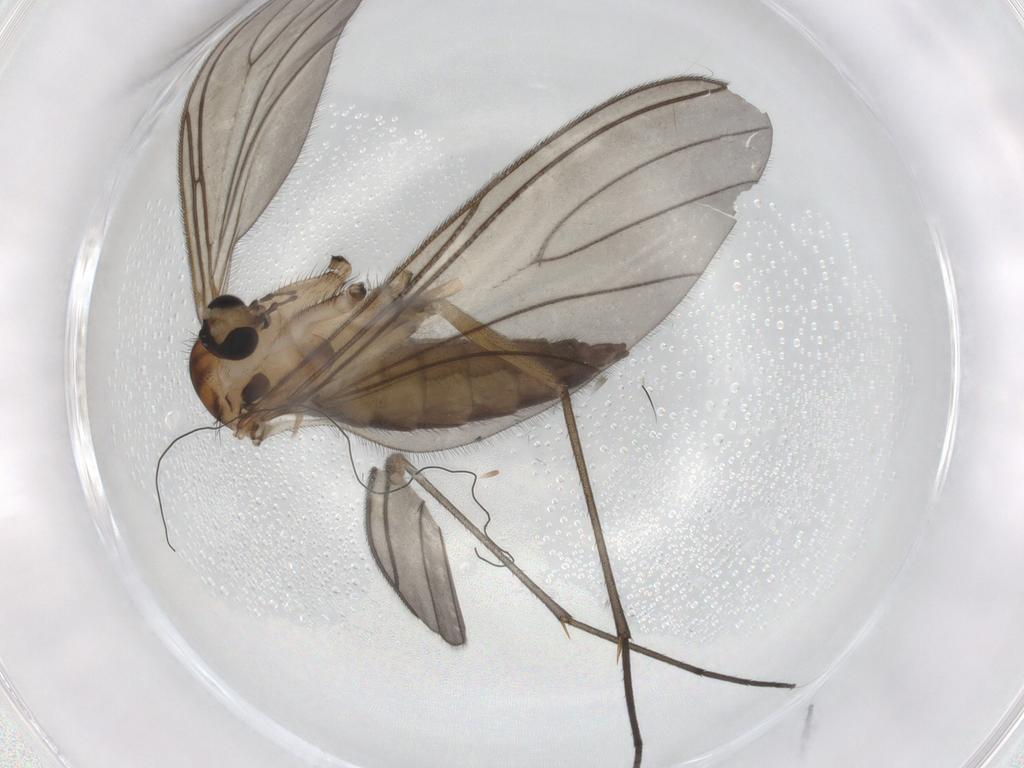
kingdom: Animalia
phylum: Arthropoda
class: Insecta
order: Diptera
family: Sciaridae
